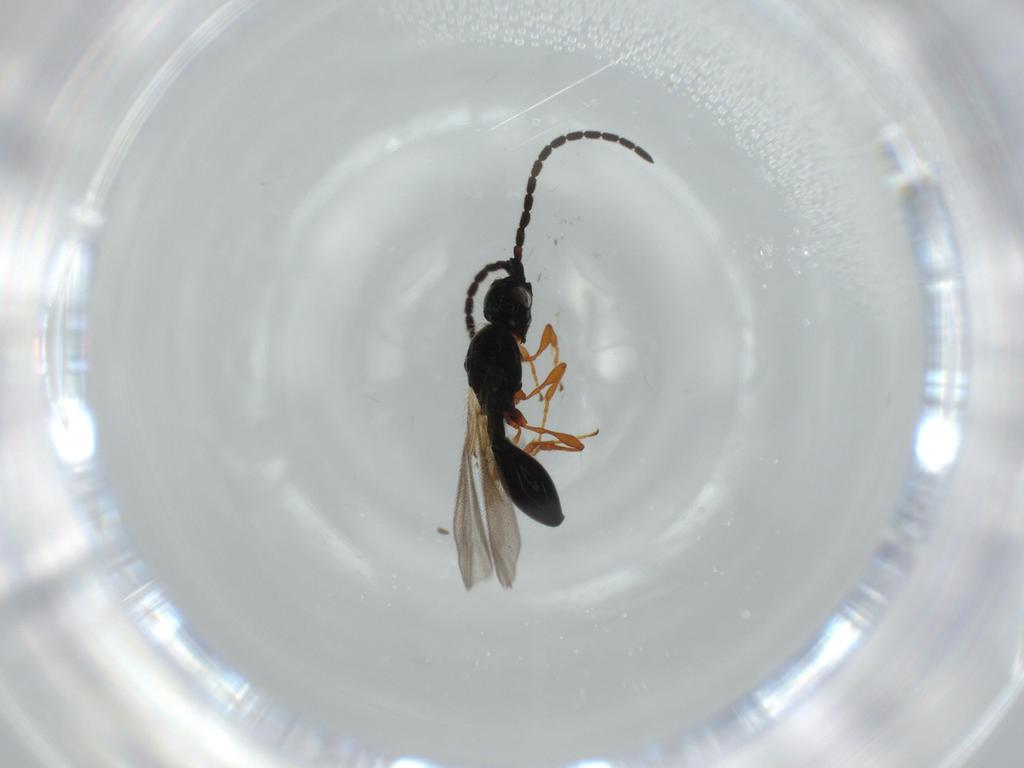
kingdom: Animalia
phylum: Arthropoda
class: Insecta
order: Hymenoptera
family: Diapriidae
